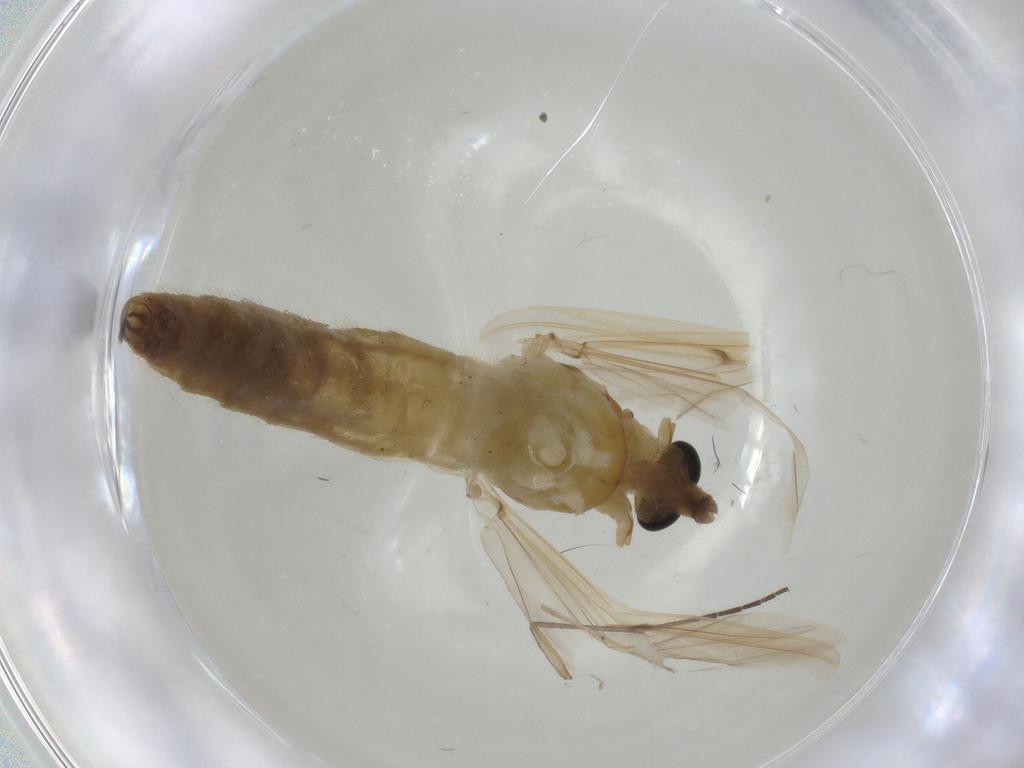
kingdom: Animalia
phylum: Arthropoda
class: Insecta
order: Diptera
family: Chironomidae
